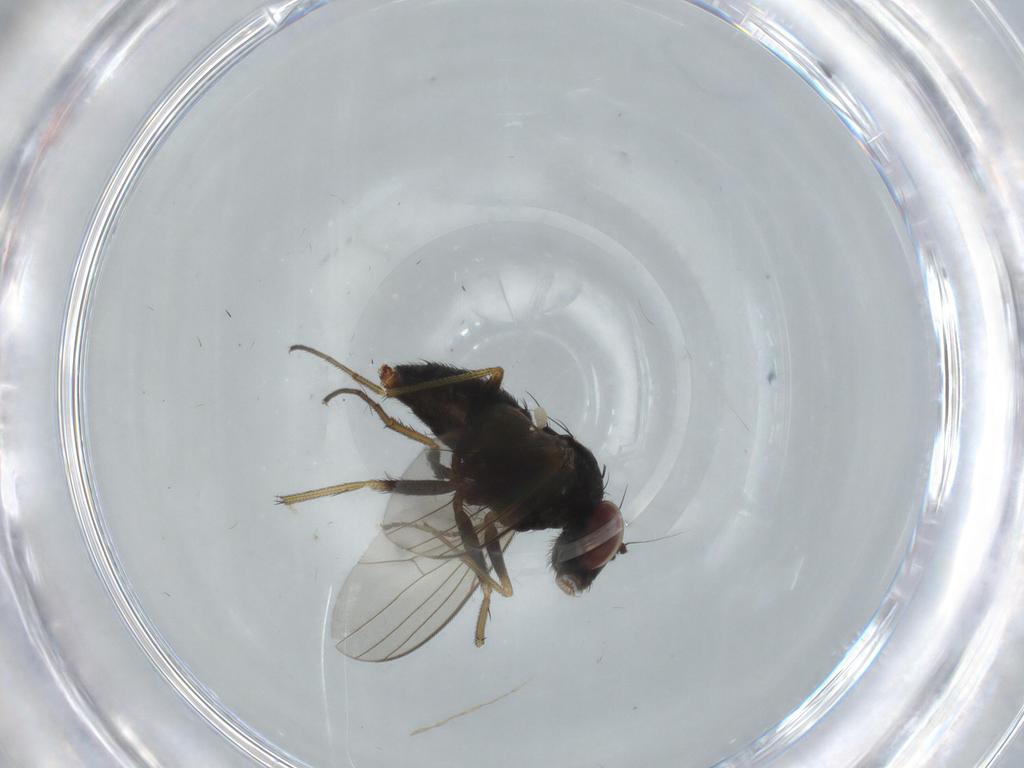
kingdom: Animalia
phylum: Arthropoda
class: Insecta
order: Diptera
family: Dolichopodidae
